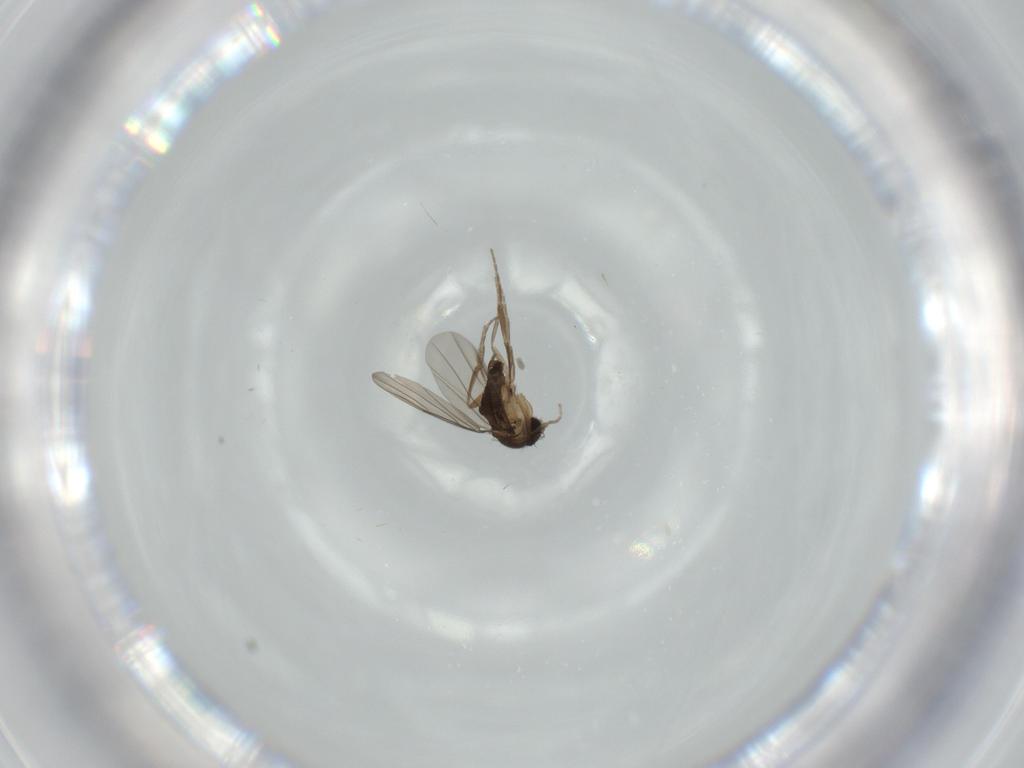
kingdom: Animalia
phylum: Arthropoda
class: Insecta
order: Diptera
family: Phoridae
